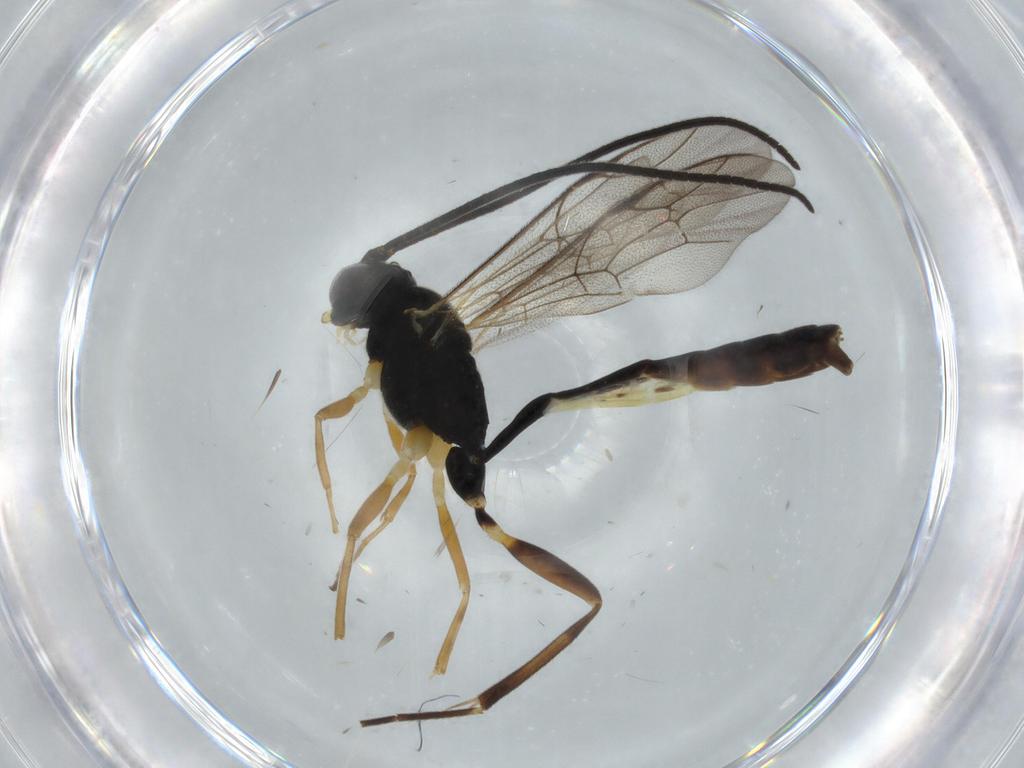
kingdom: Animalia
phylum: Arthropoda
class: Insecta
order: Hymenoptera
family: Ichneumonidae
